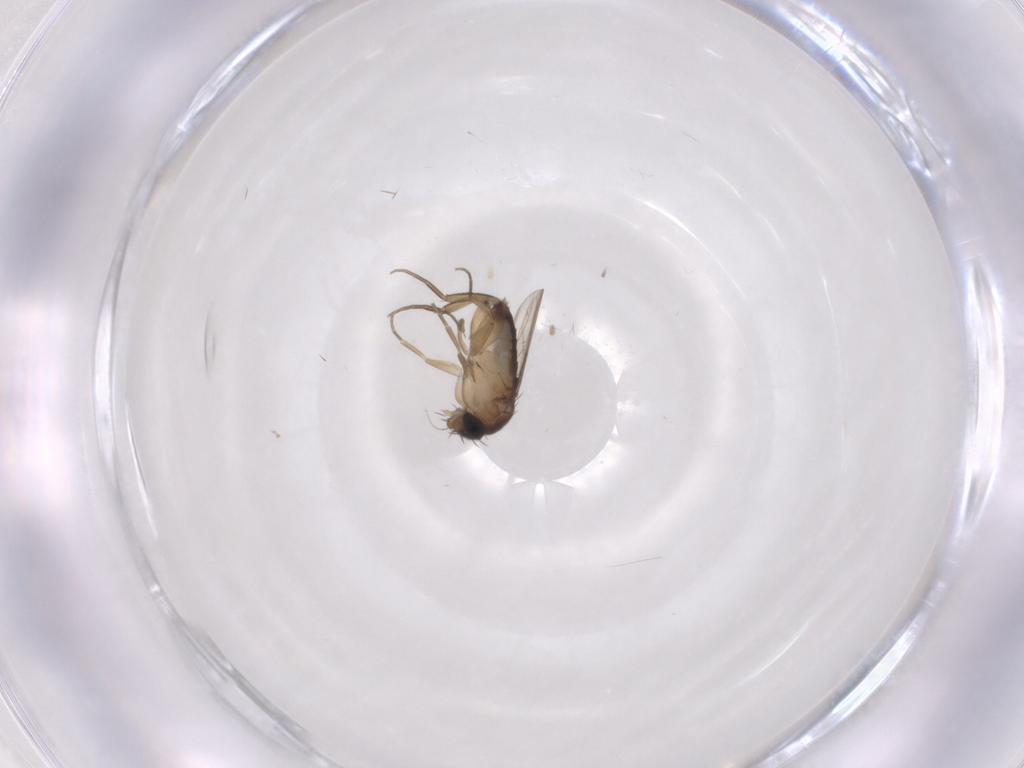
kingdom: Animalia
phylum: Arthropoda
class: Insecta
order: Diptera
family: Phoridae
